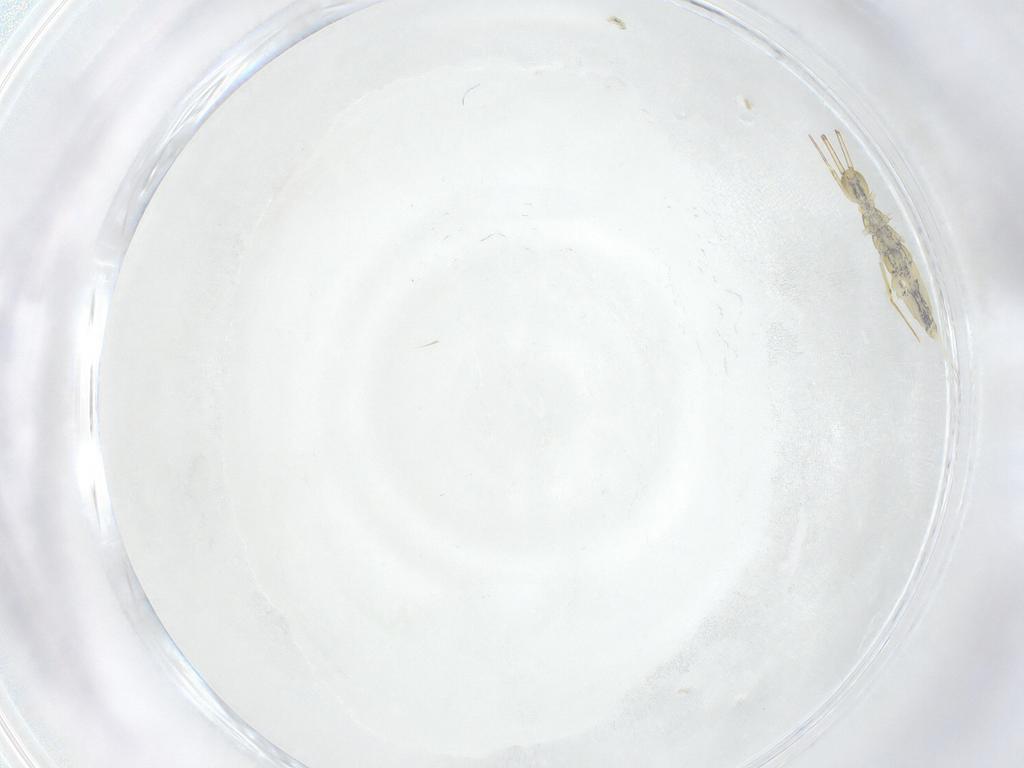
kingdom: Animalia
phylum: Arthropoda
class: Collembola
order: Entomobryomorpha
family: Entomobryidae
